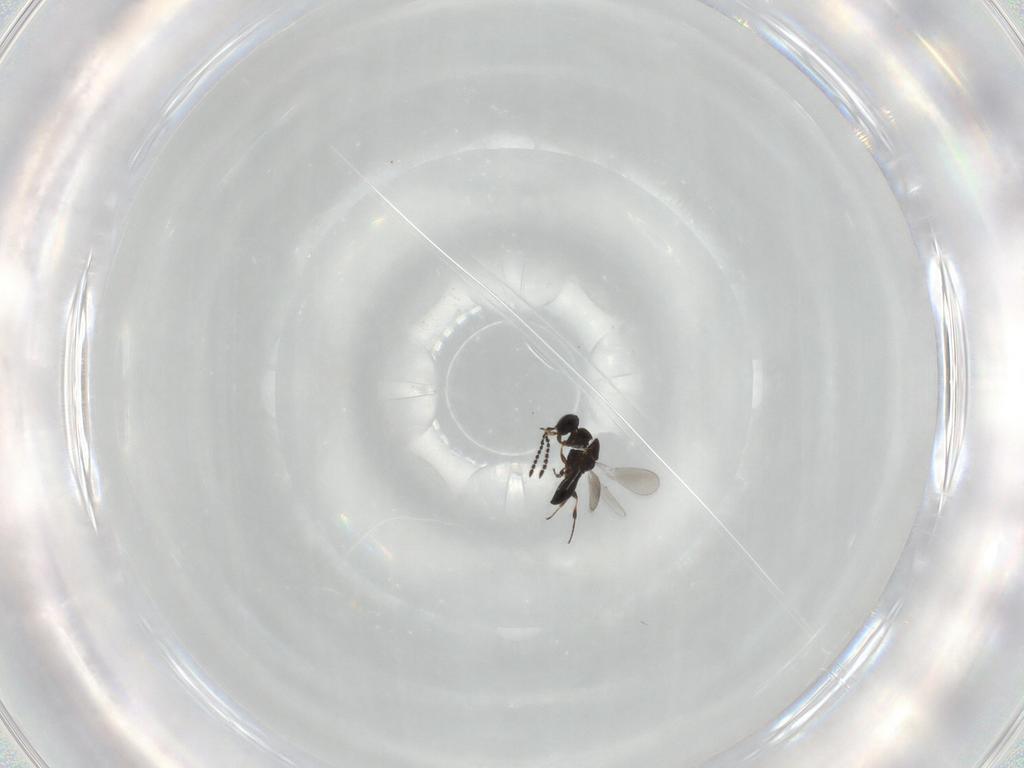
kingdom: Animalia
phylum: Arthropoda
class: Insecta
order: Hymenoptera
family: Platygastridae
